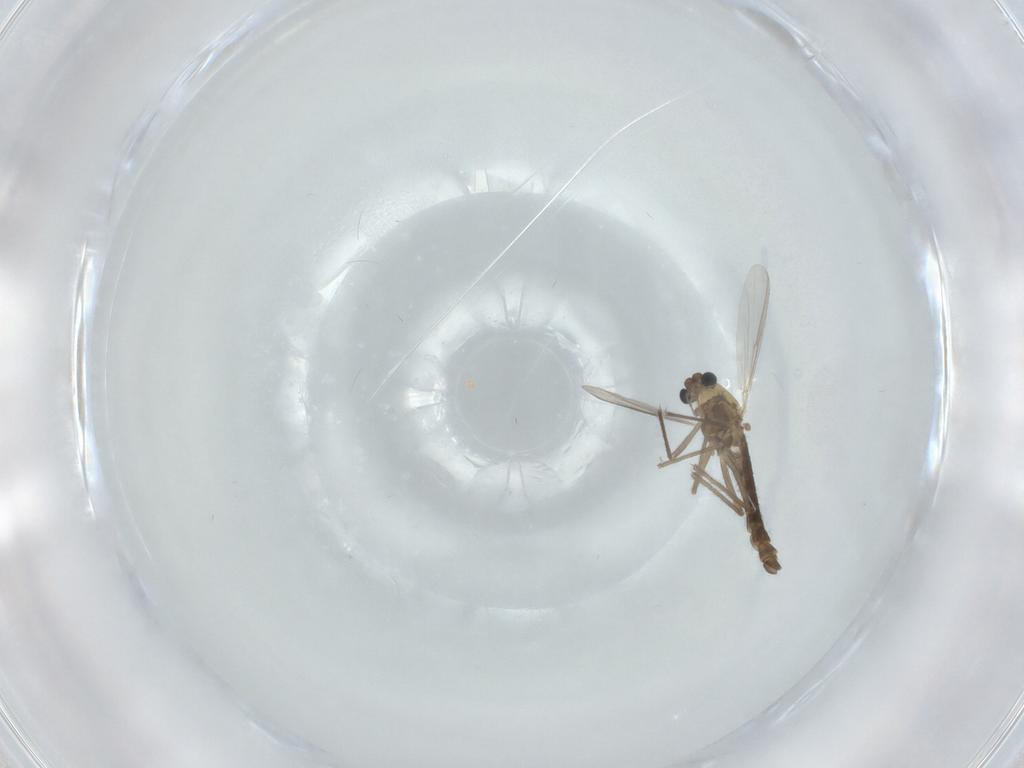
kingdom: Animalia
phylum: Arthropoda
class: Insecta
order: Diptera
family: Chironomidae
